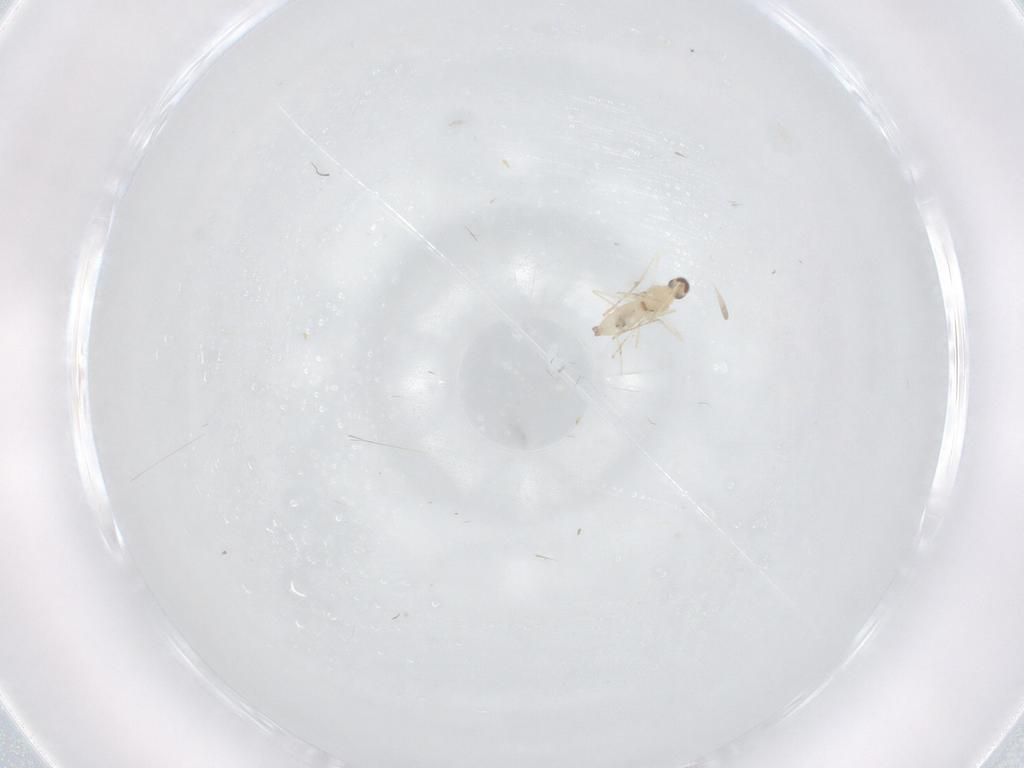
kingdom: Animalia
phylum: Arthropoda
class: Insecta
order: Diptera
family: Cecidomyiidae
